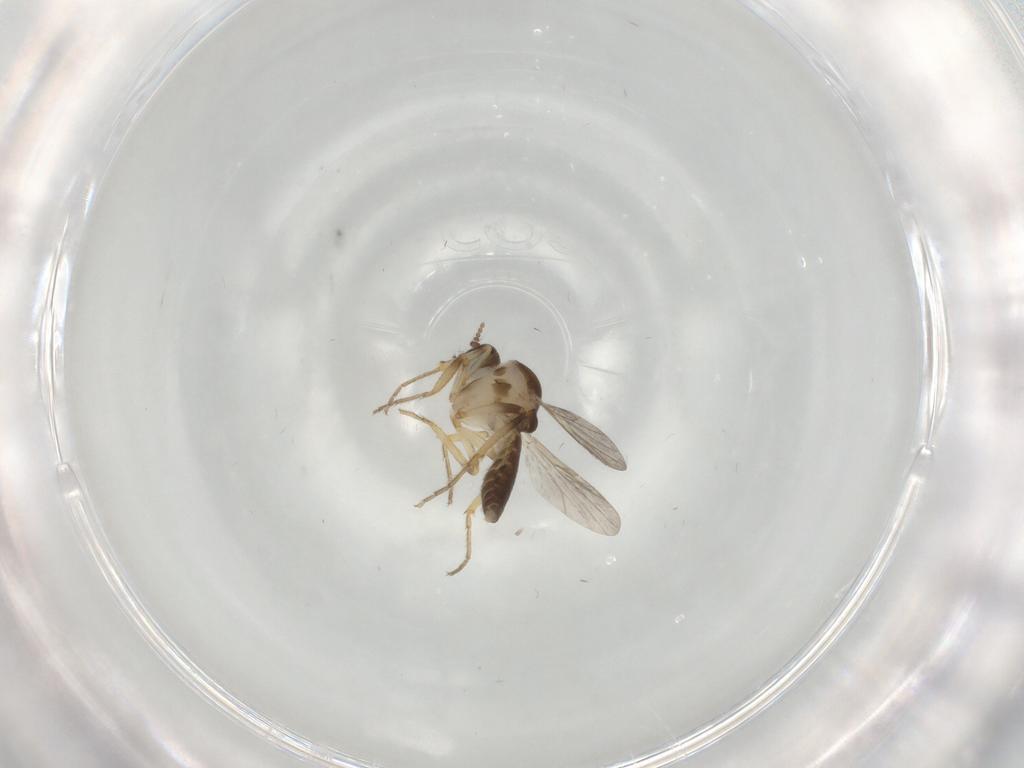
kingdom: Animalia
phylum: Arthropoda
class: Insecta
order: Diptera
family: Ceratopogonidae
